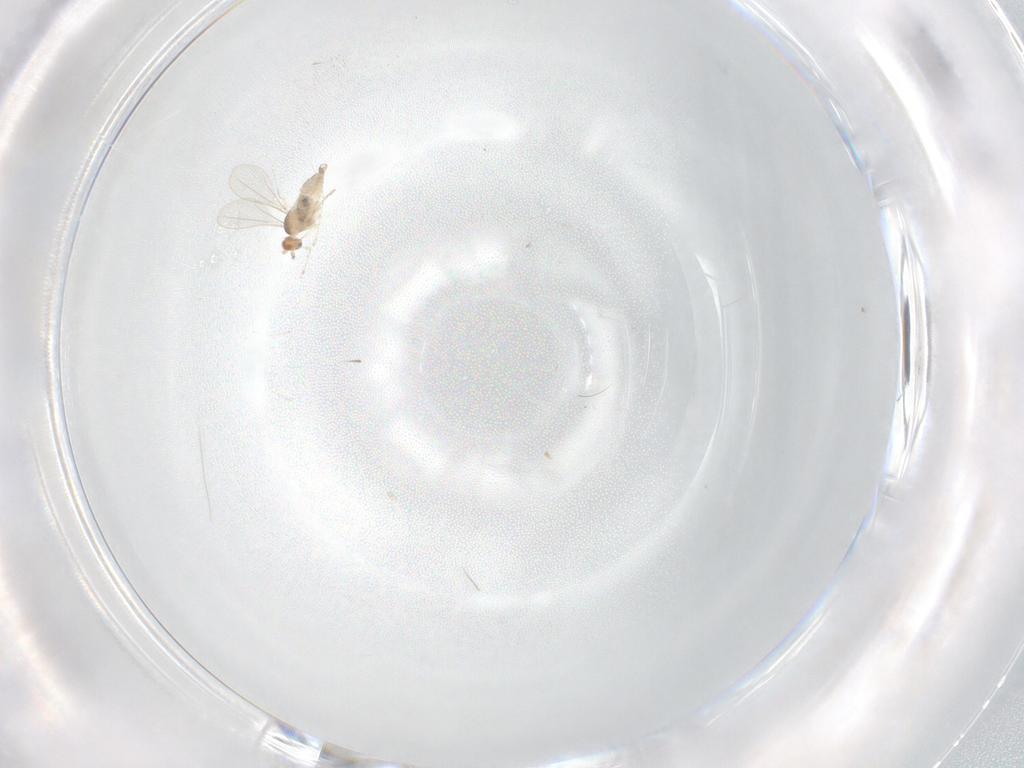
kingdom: Animalia
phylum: Arthropoda
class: Insecta
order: Diptera
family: Cecidomyiidae
